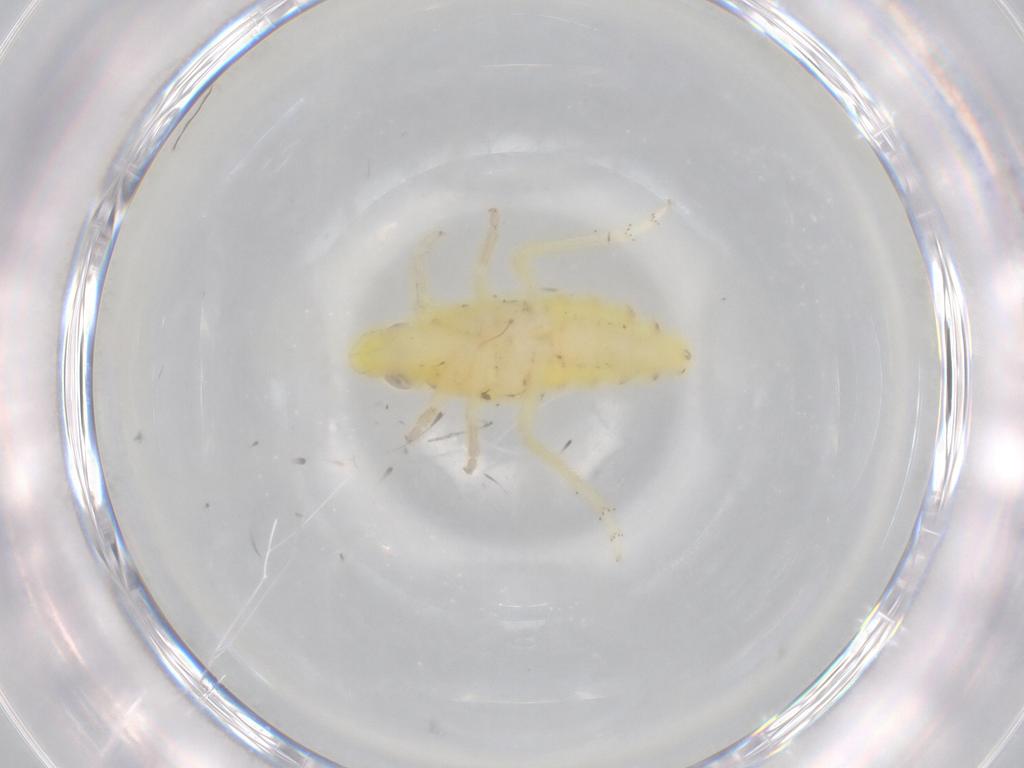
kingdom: Animalia
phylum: Arthropoda
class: Insecta
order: Hemiptera
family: Tropiduchidae
